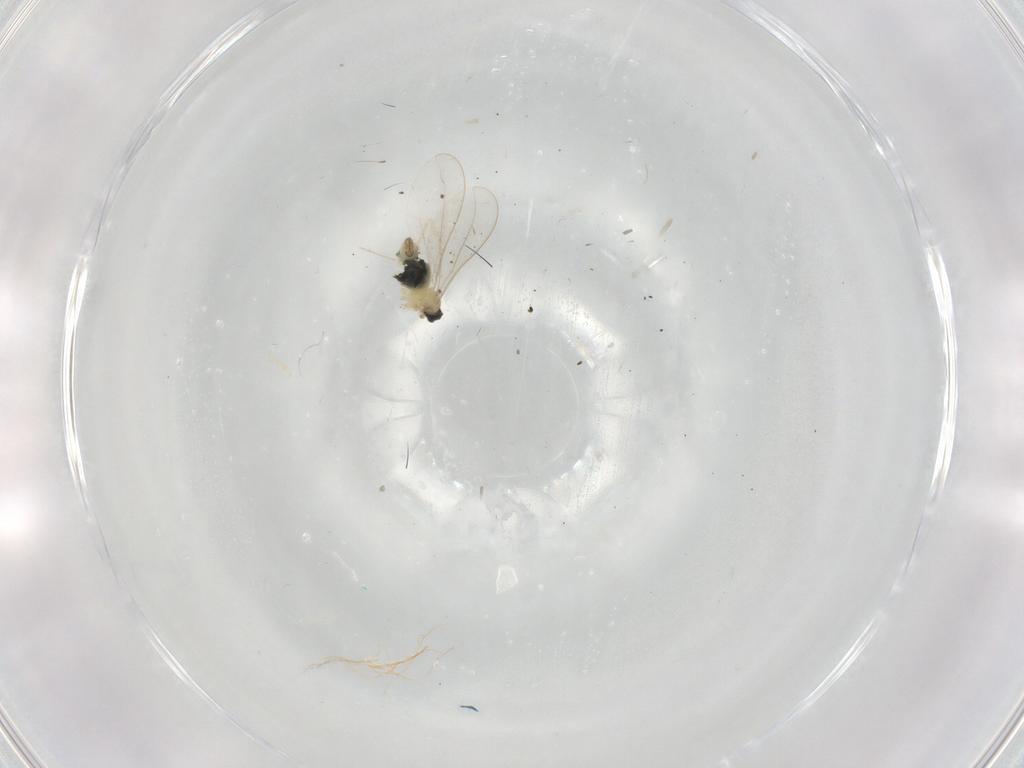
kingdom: Animalia
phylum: Arthropoda
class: Insecta
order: Diptera
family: Cecidomyiidae
